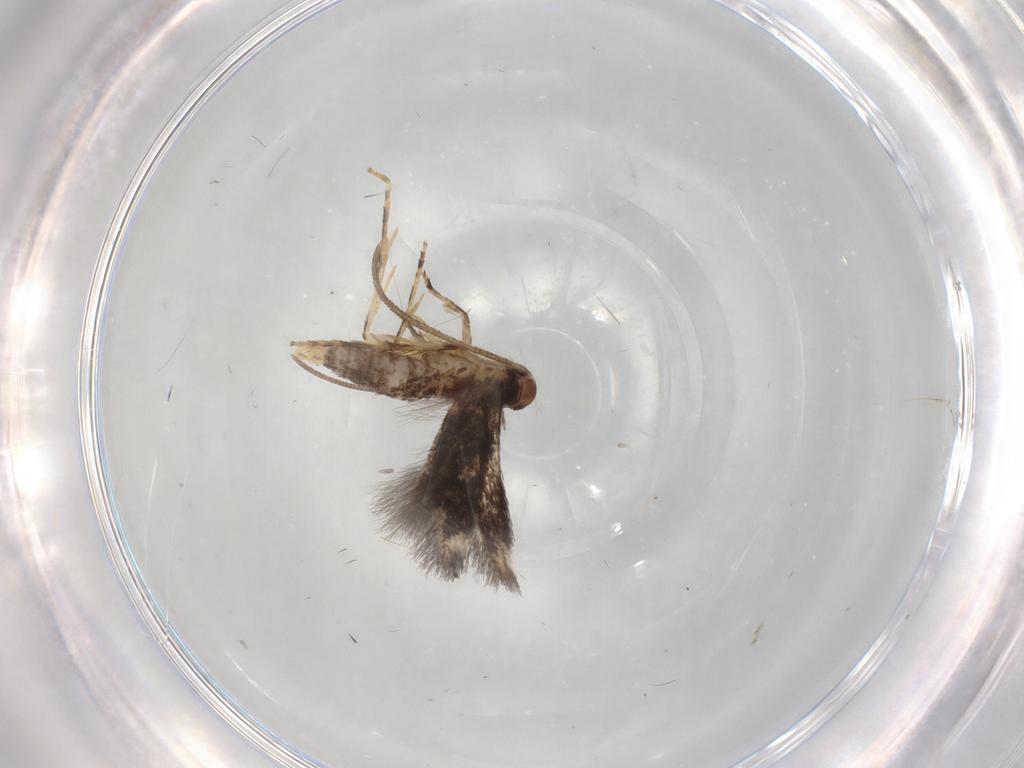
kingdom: Animalia
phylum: Arthropoda
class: Insecta
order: Lepidoptera
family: Elachistidae
